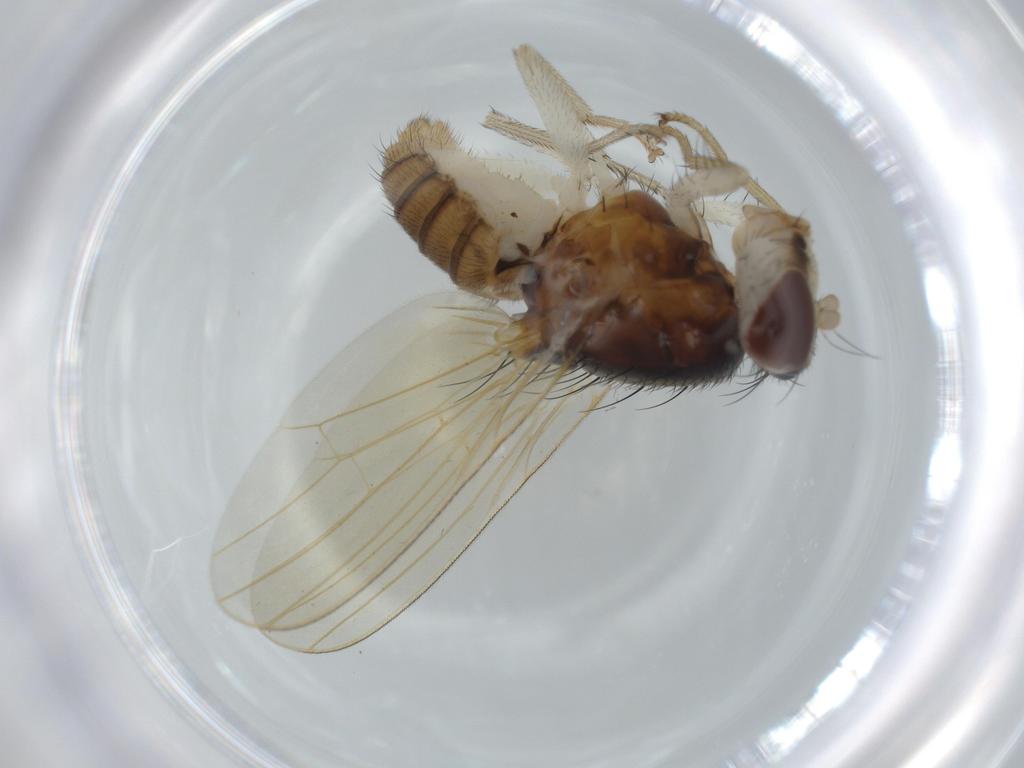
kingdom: Animalia
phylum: Arthropoda
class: Insecta
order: Diptera
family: Lauxaniidae
